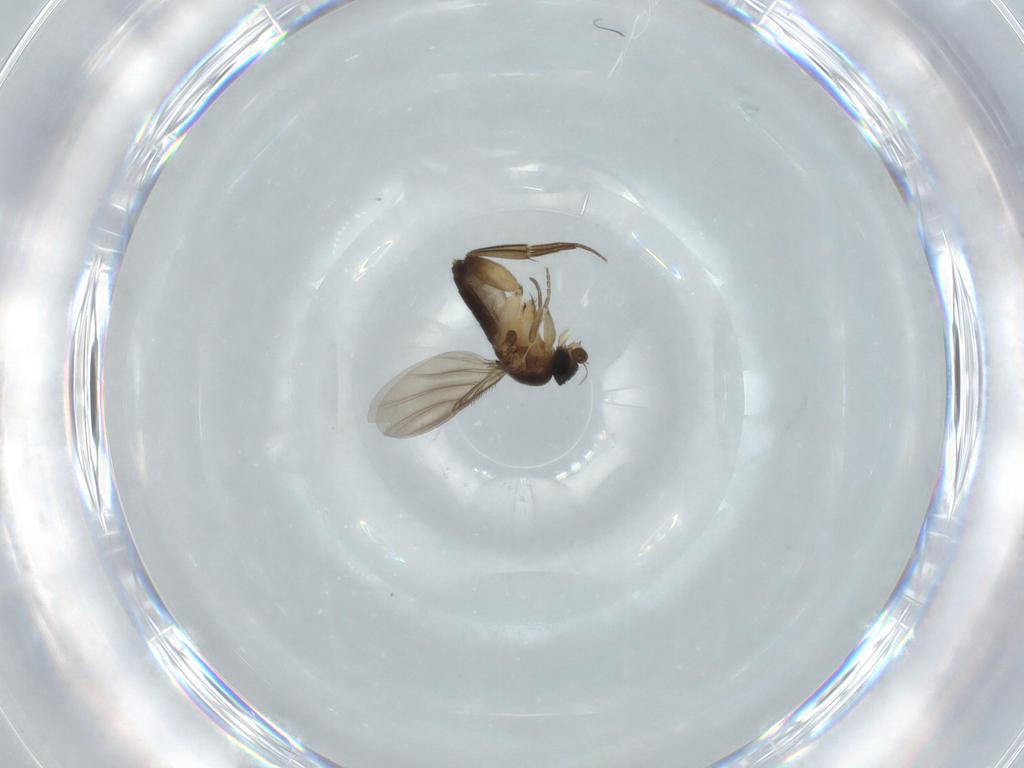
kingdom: Animalia
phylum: Arthropoda
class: Insecta
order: Diptera
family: Phoridae
